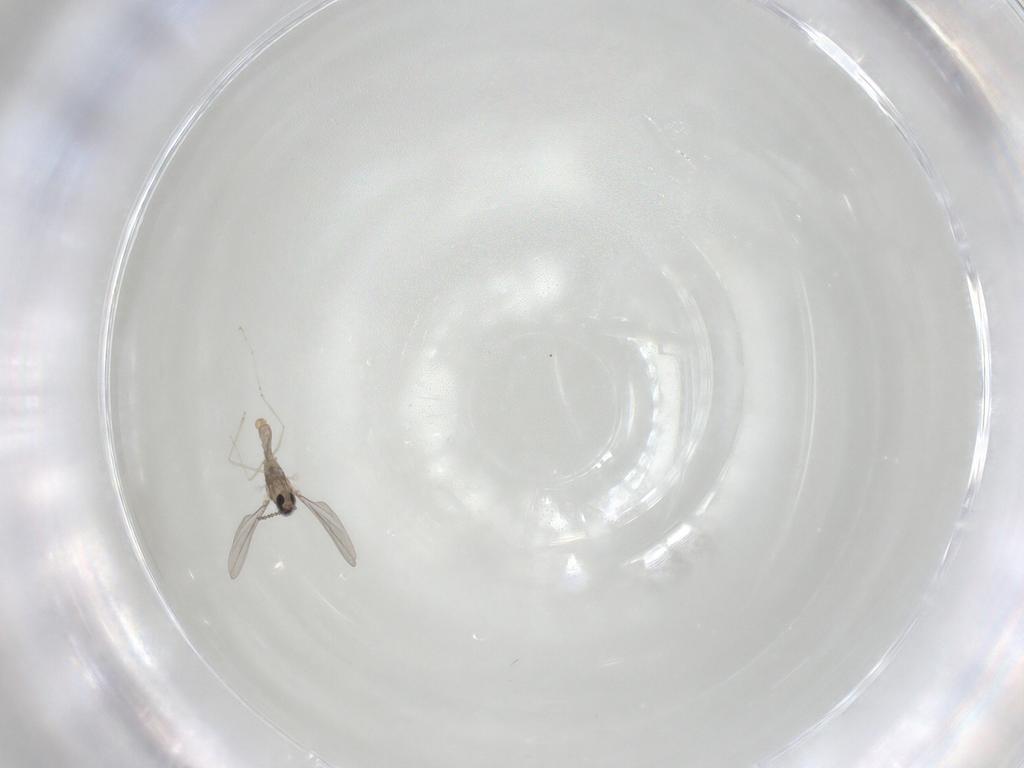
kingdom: Animalia
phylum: Arthropoda
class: Insecta
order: Diptera
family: Cecidomyiidae
